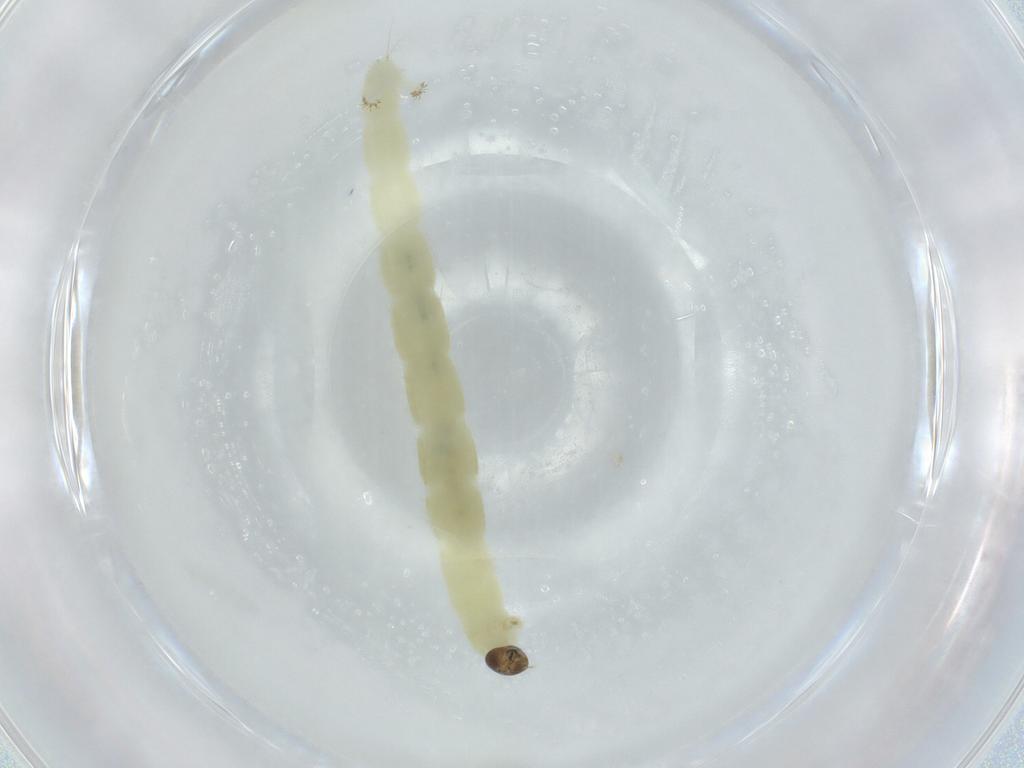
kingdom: Animalia
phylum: Arthropoda
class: Insecta
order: Diptera
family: Chironomidae
